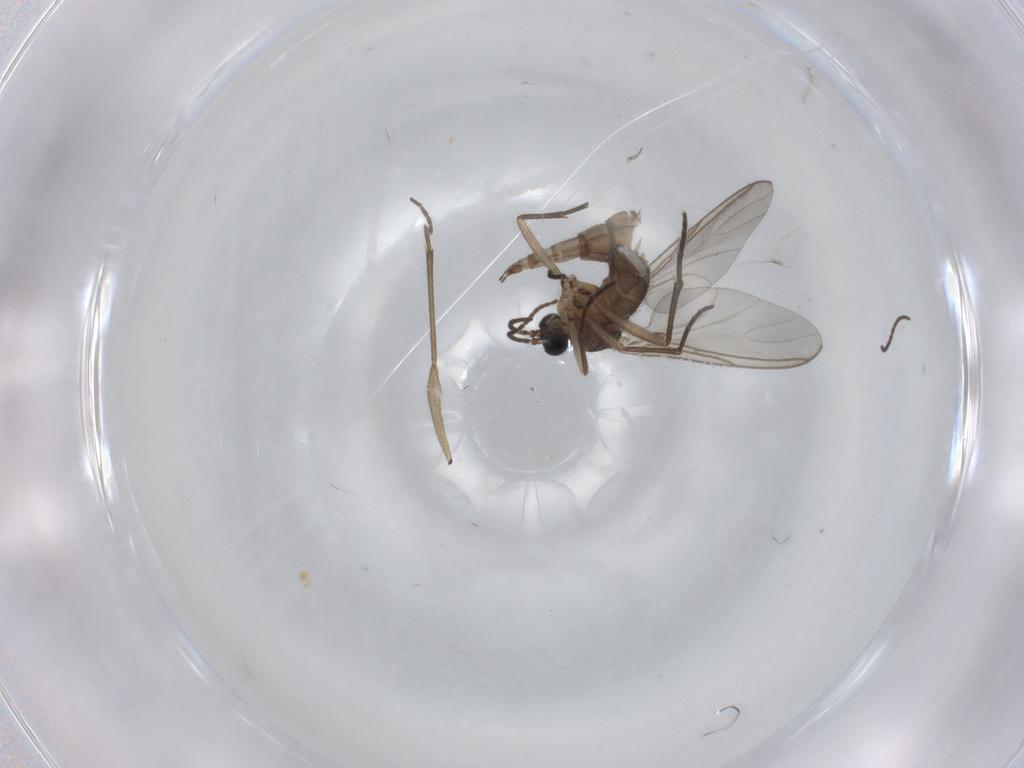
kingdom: Animalia
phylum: Arthropoda
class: Insecta
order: Diptera
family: Sciaridae
